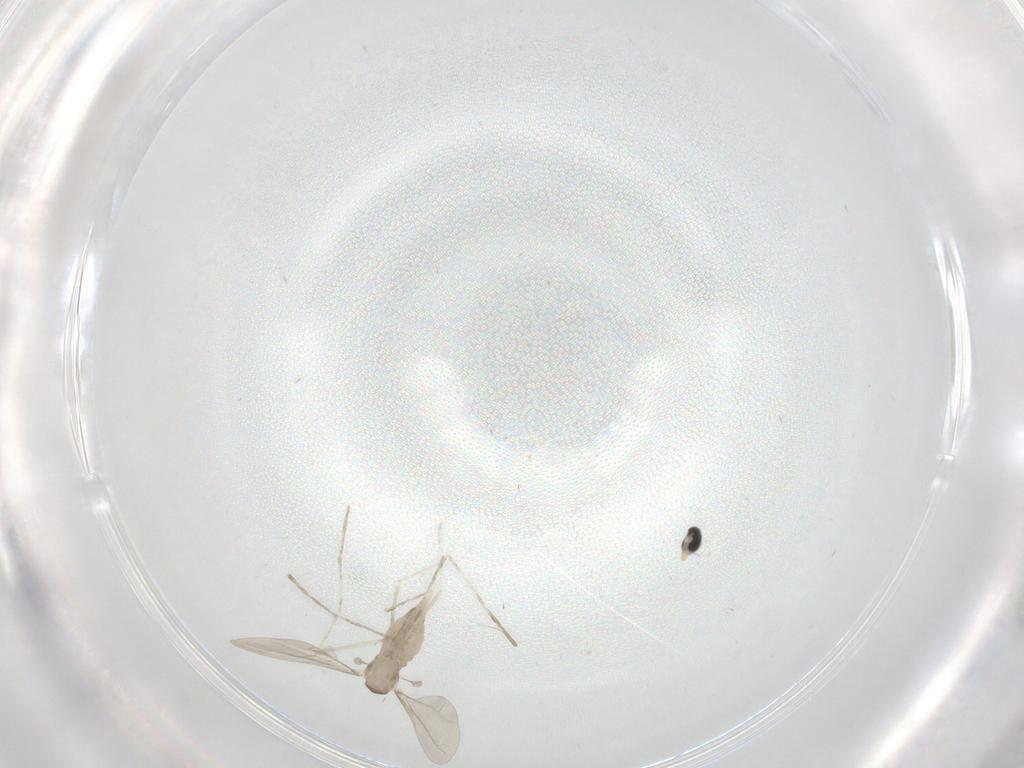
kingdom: Animalia
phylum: Arthropoda
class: Insecta
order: Diptera
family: Cecidomyiidae
